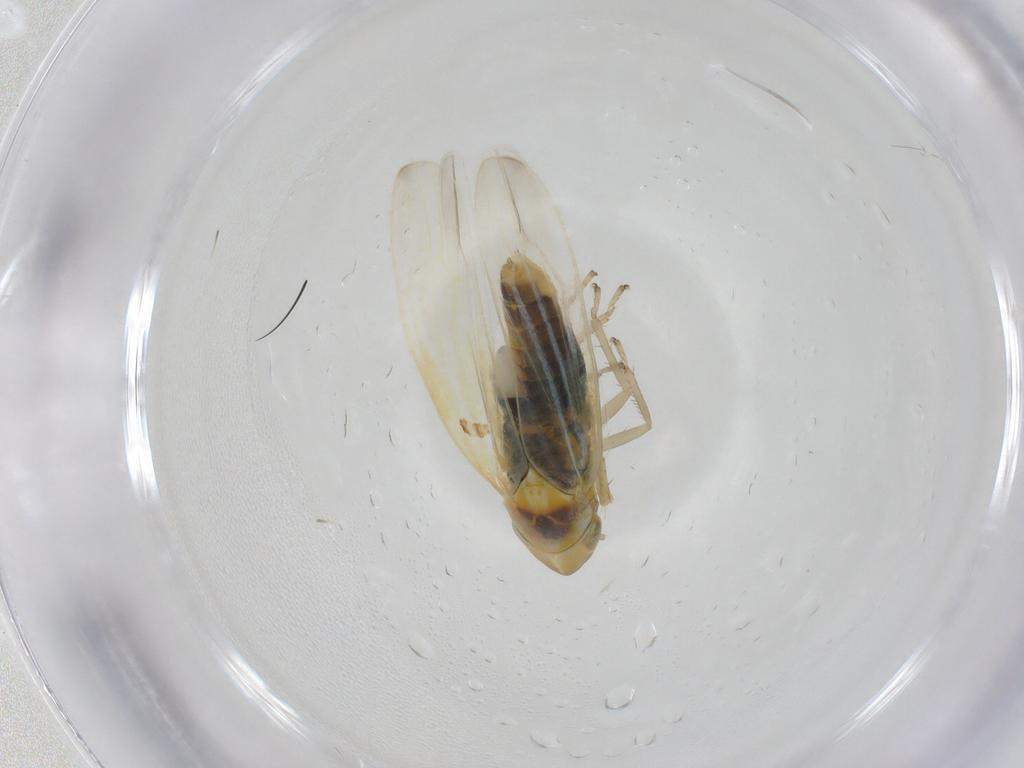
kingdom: Animalia
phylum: Arthropoda
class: Insecta
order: Hemiptera
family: Cicadellidae
